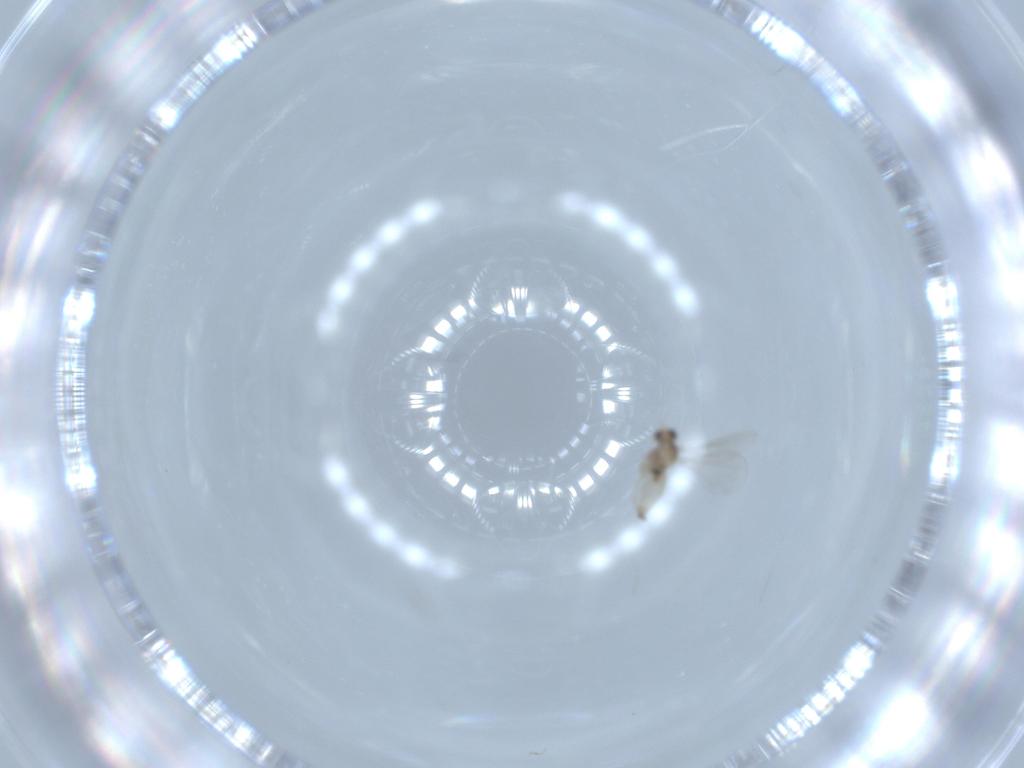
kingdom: Animalia
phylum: Arthropoda
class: Insecta
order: Diptera
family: Cecidomyiidae
